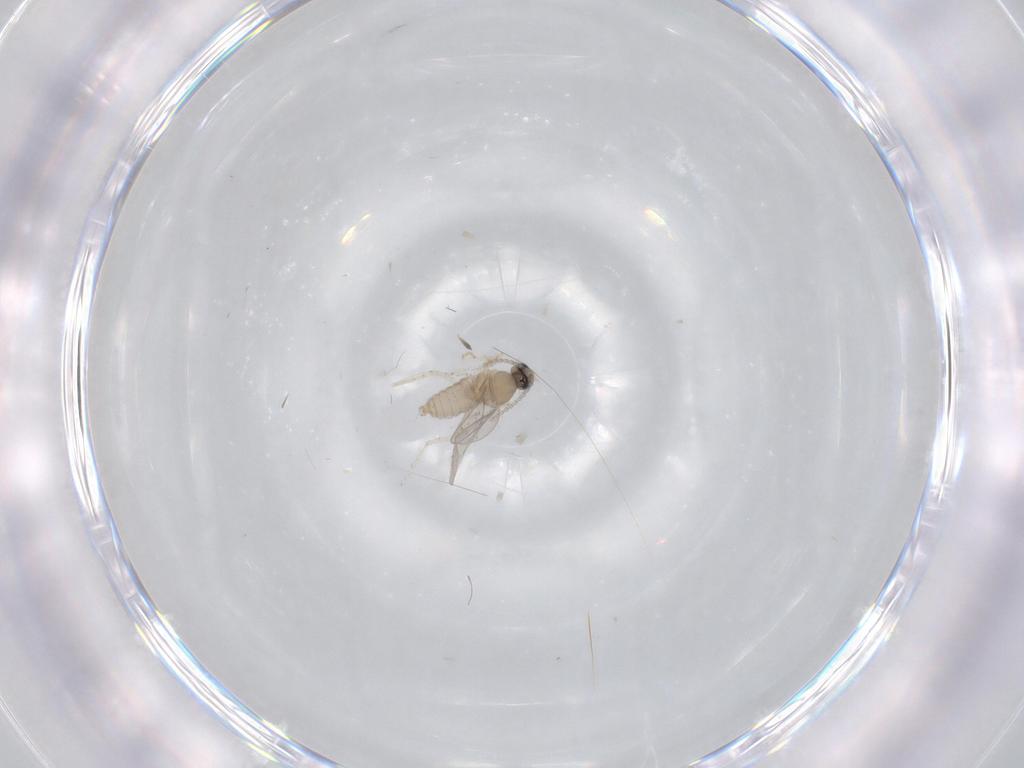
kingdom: Animalia
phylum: Arthropoda
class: Insecta
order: Diptera
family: Cecidomyiidae
